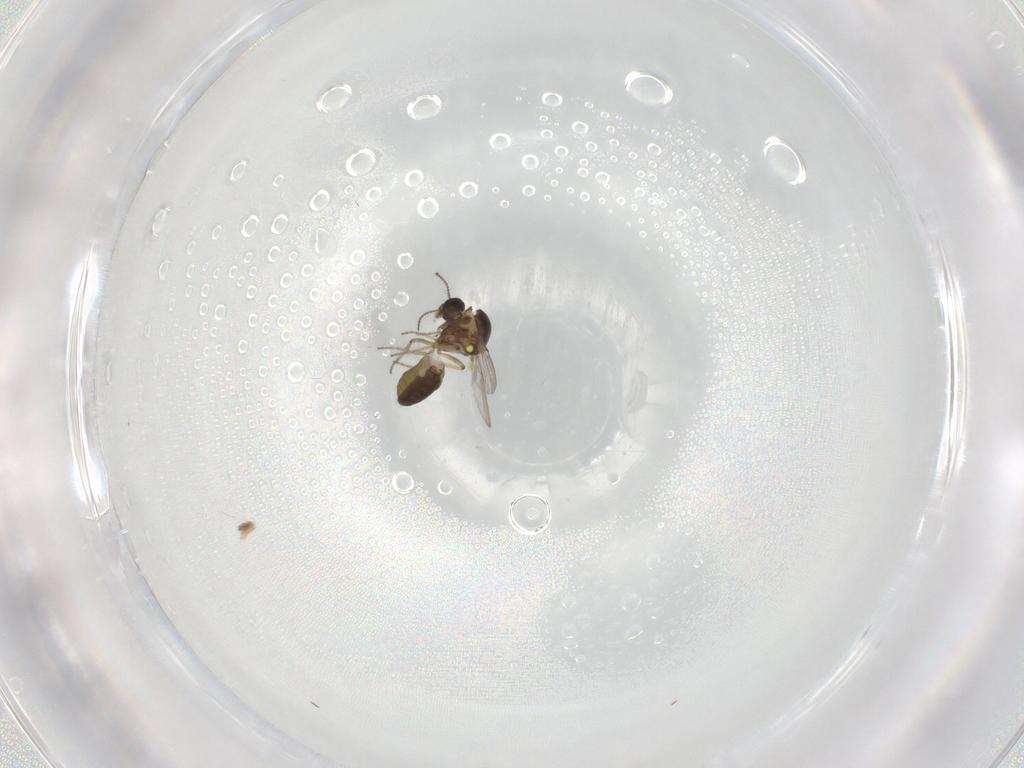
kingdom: Animalia
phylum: Arthropoda
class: Insecta
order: Diptera
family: Ceratopogonidae
